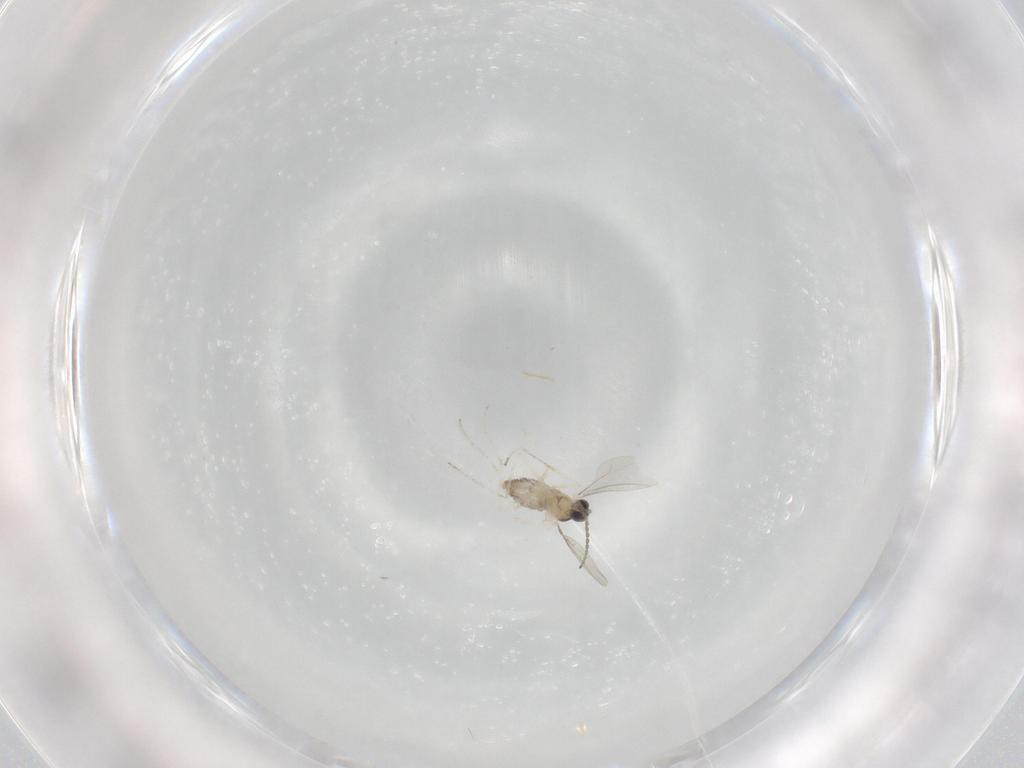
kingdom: Animalia
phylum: Arthropoda
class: Insecta
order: Diptera
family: Cecidomyiidae
